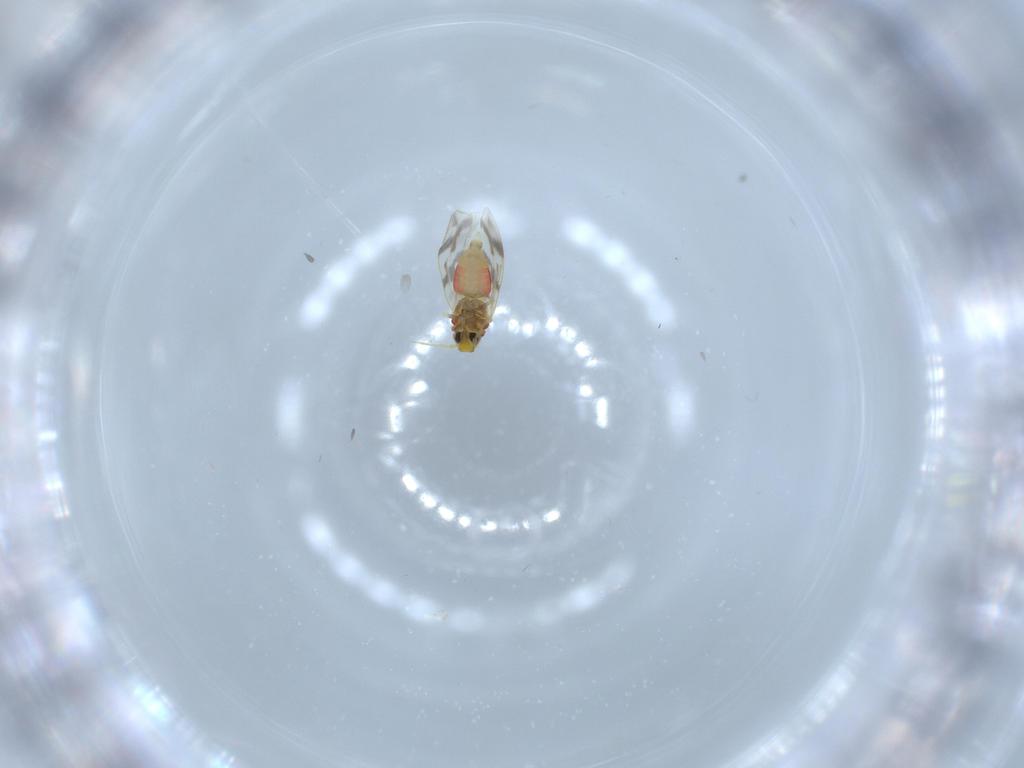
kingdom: Animalia
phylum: Arthropoda
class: Insecta
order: Hemiptera
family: Aleyrodidae
